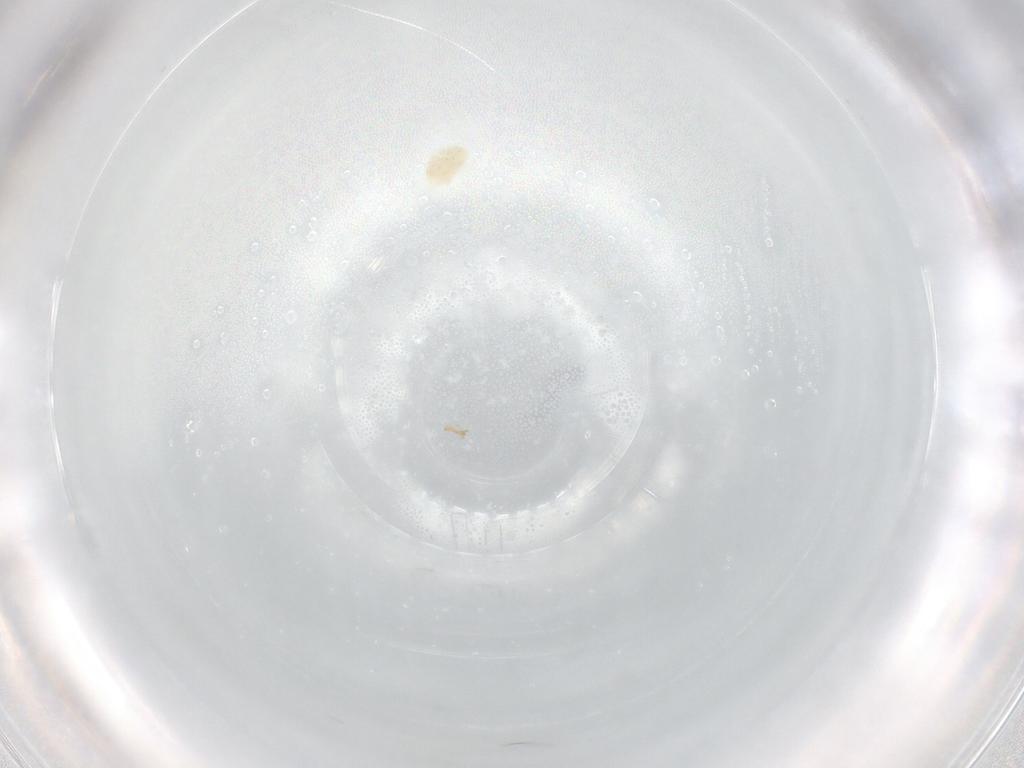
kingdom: Animalia
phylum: Arthropoda
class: Arachnida
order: Trombidiformes
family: Eupodidae
